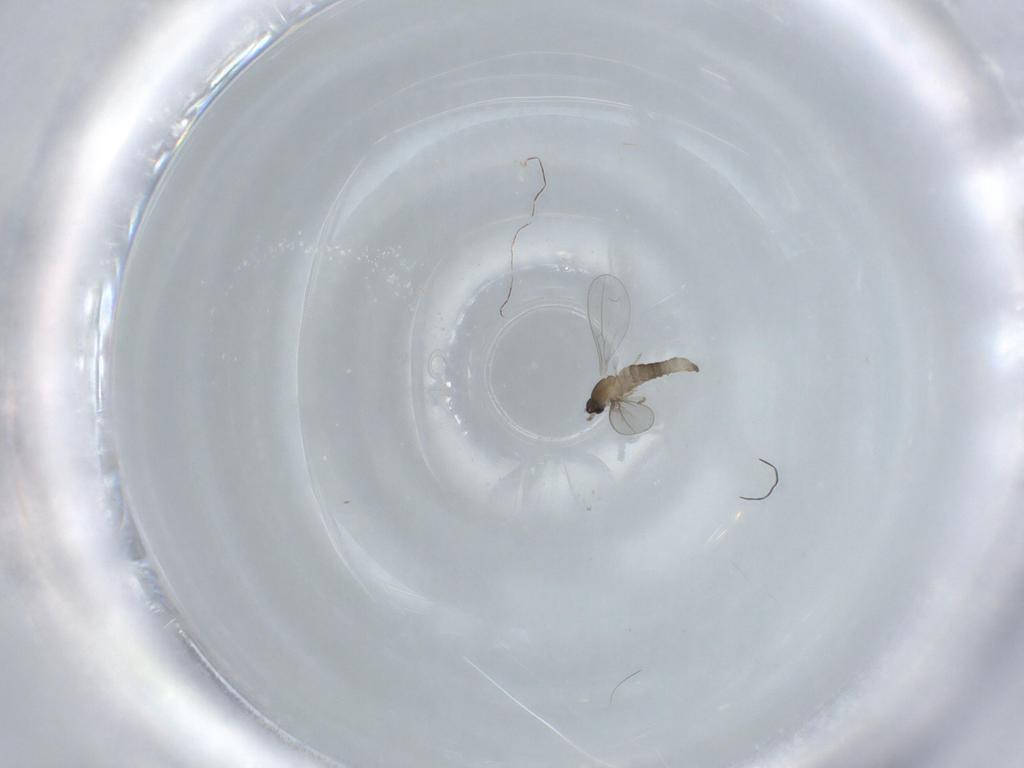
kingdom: Animalia
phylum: Arthropoda
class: Insecta
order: Diptera
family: Cecidomyiidae
